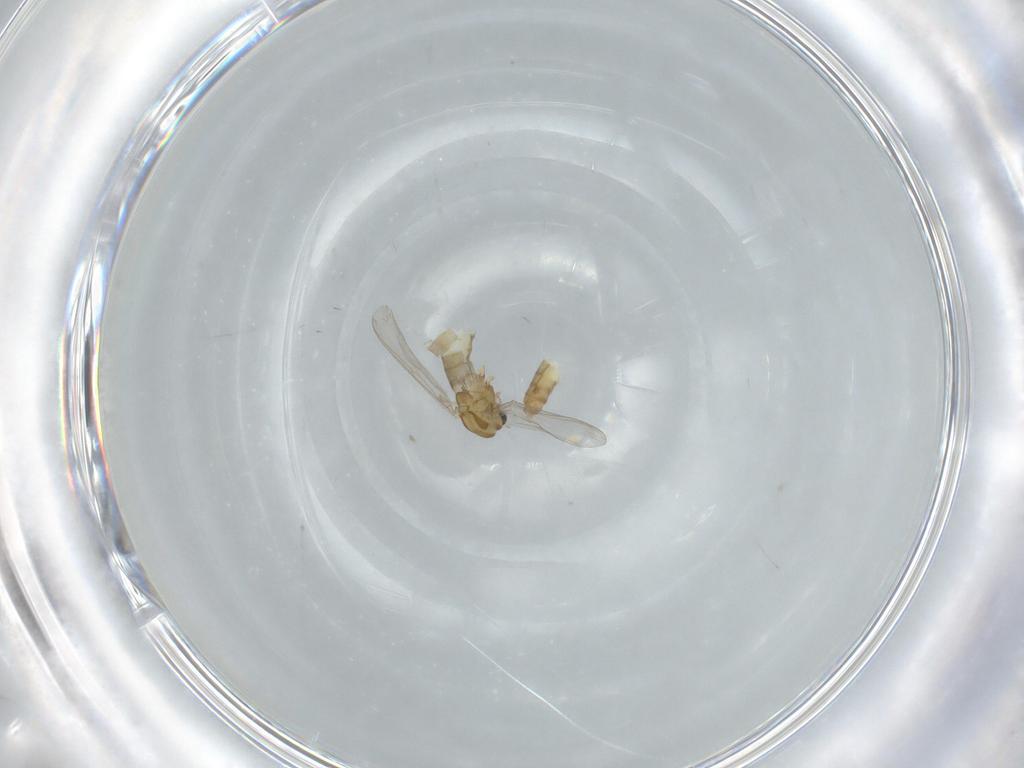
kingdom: Animalia
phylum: Arthropoda
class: Insecta
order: Diptera
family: Chironomidae
